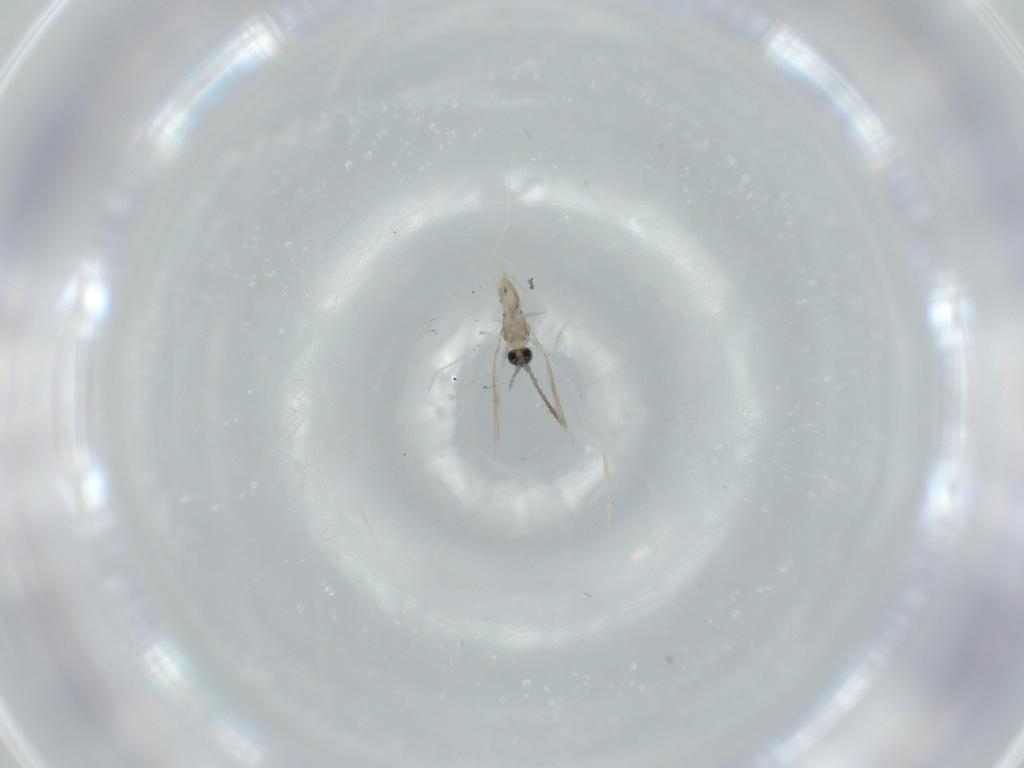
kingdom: Animalia
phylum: Arthropoda
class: Insecta
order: Diptera
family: Cecidomyiidae
